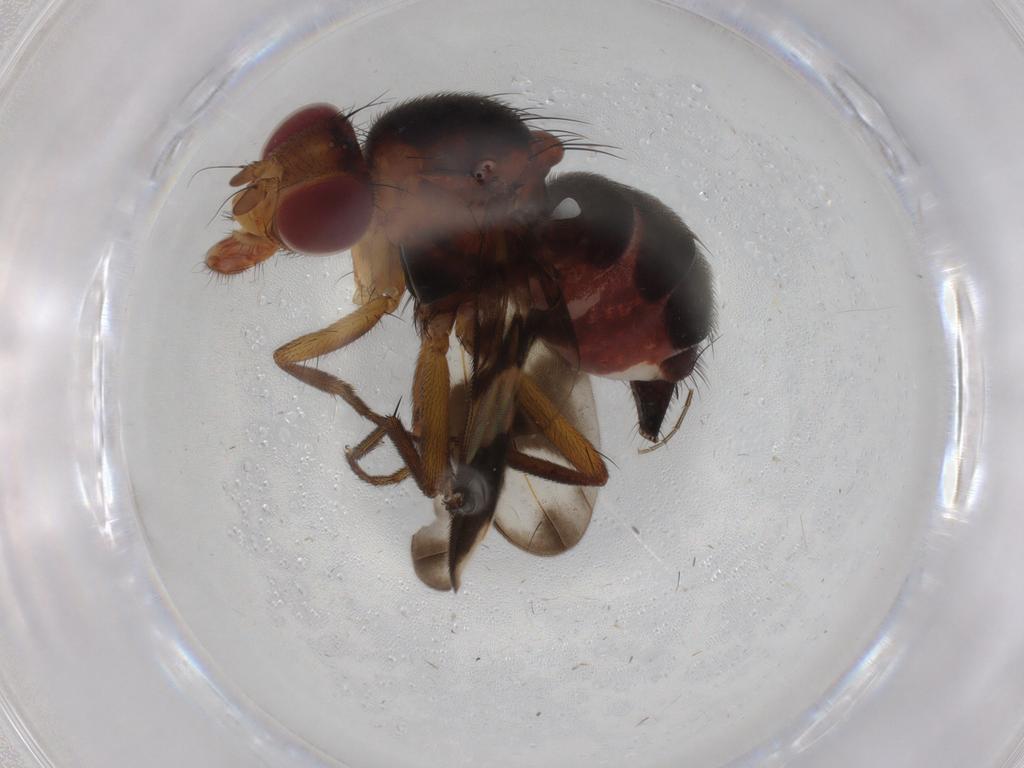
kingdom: Animalia
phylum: Arthropoda
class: Insecta
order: Diptera
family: Richardiidae
